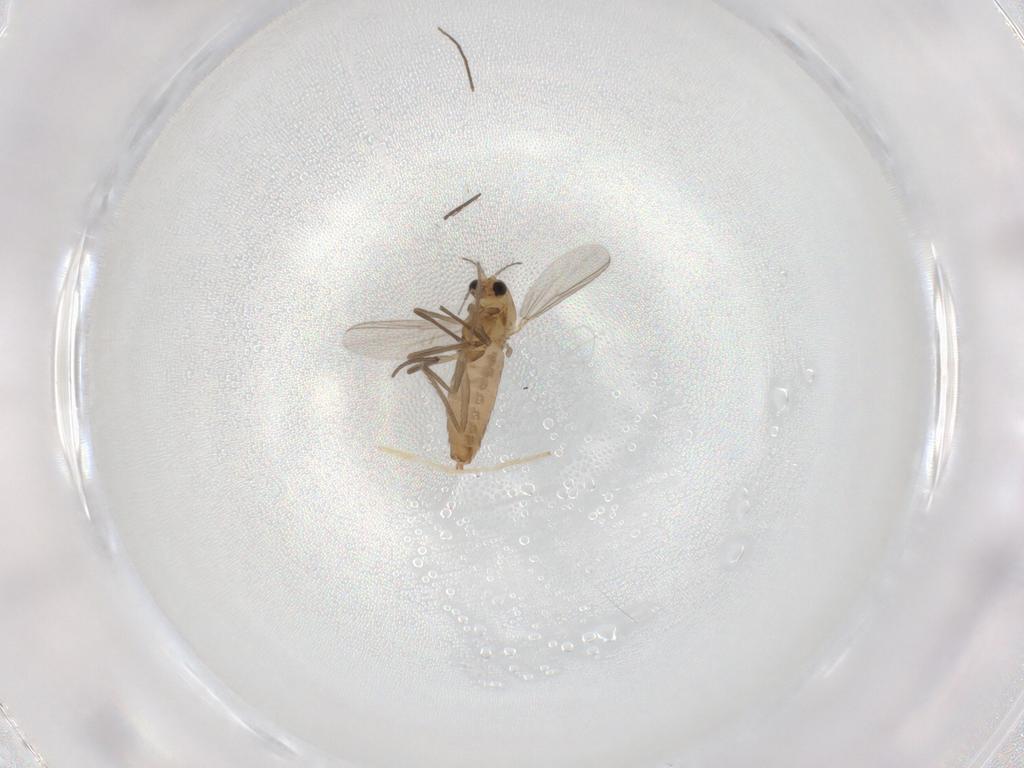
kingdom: Animalia
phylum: Arthropoda
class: Insecta
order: Diptera
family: Chironomidae
